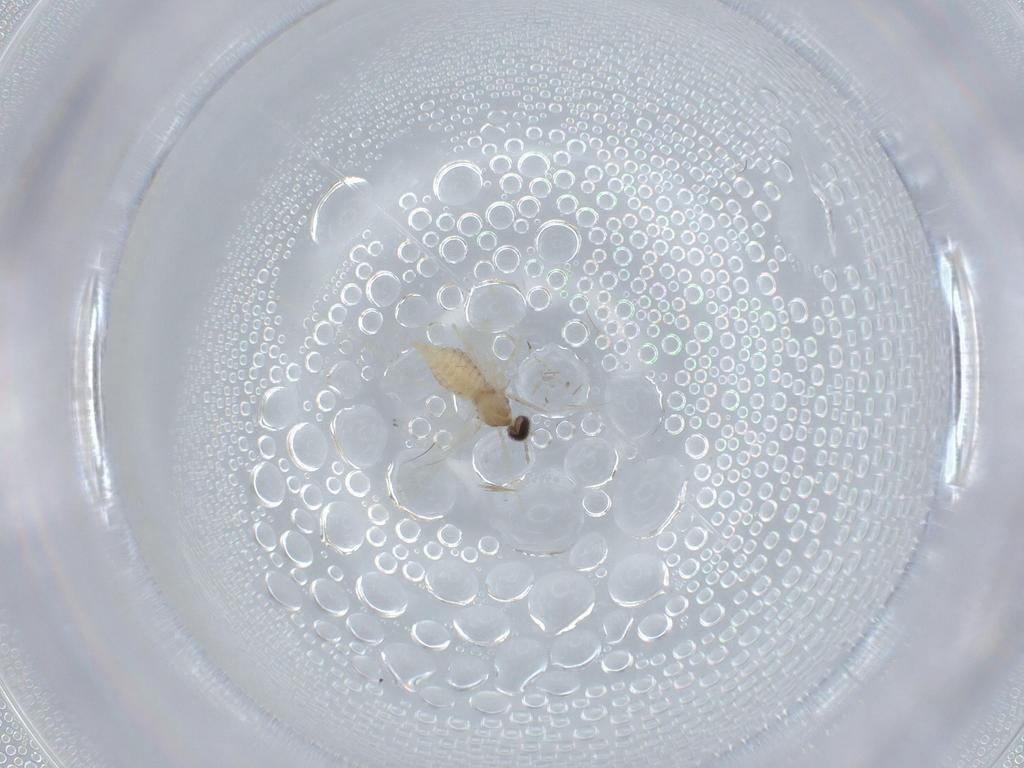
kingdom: Animalia
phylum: Arthropoda
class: Insecta
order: Diptera
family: Cecidomyiidae
